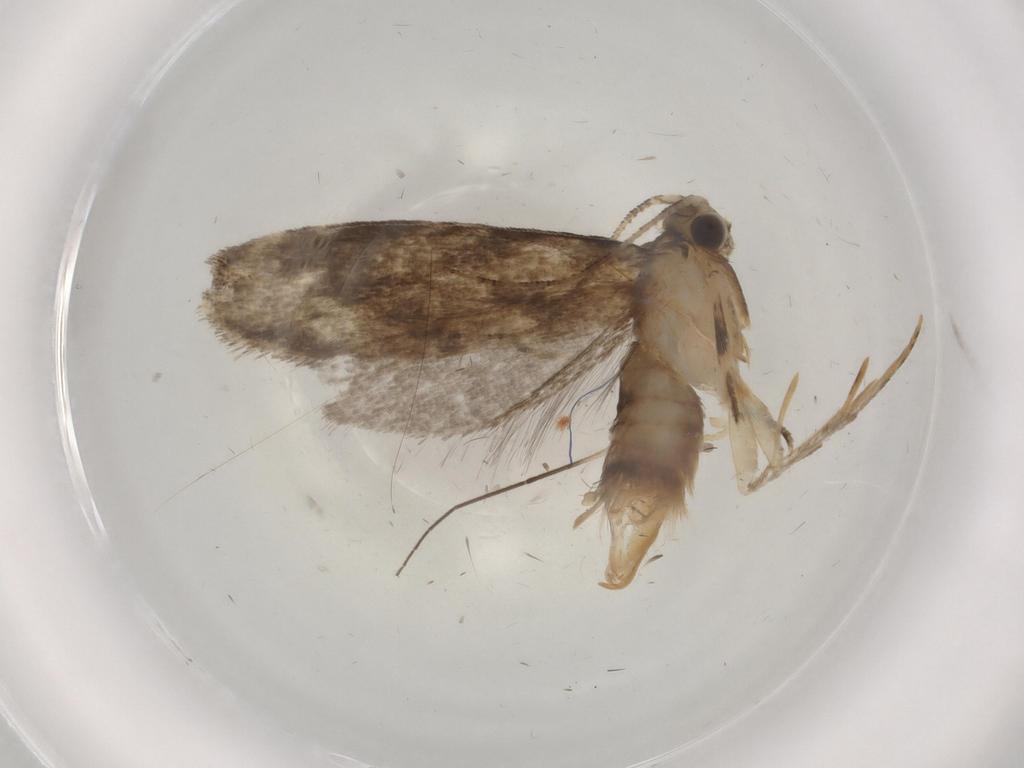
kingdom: Animalia
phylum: Arthropoda
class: Insecta
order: Lepidoptera
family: Tineidae
